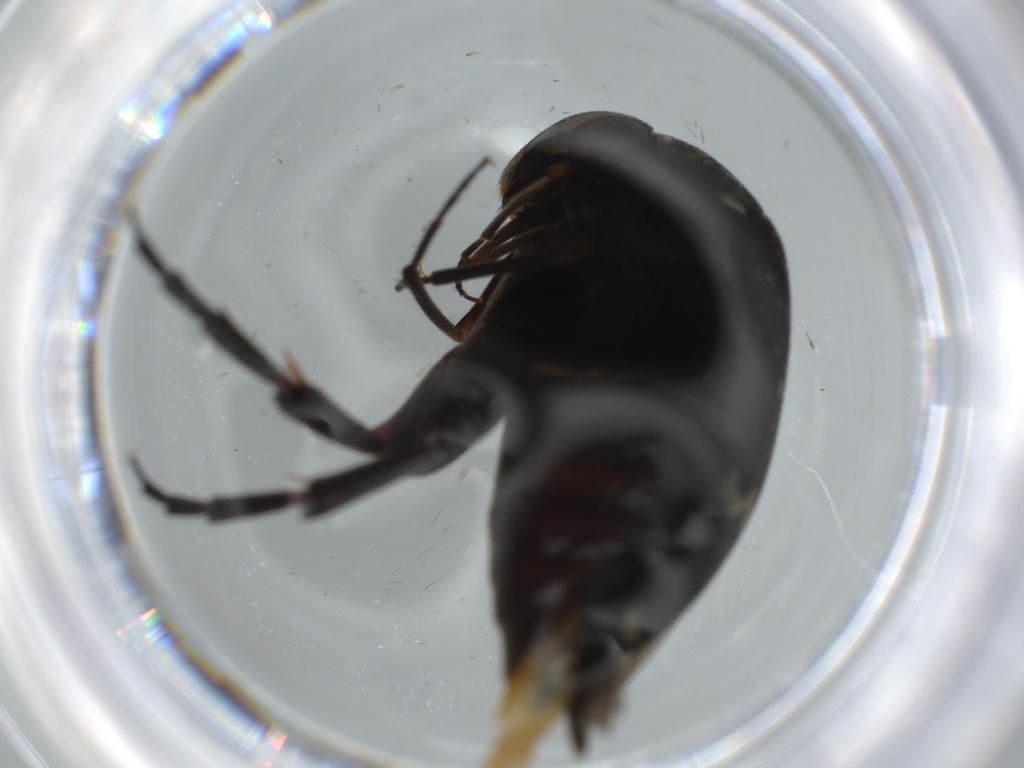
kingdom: Animalia
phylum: Arthropoda
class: Insecta
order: Coleoptera
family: Mordellidae
